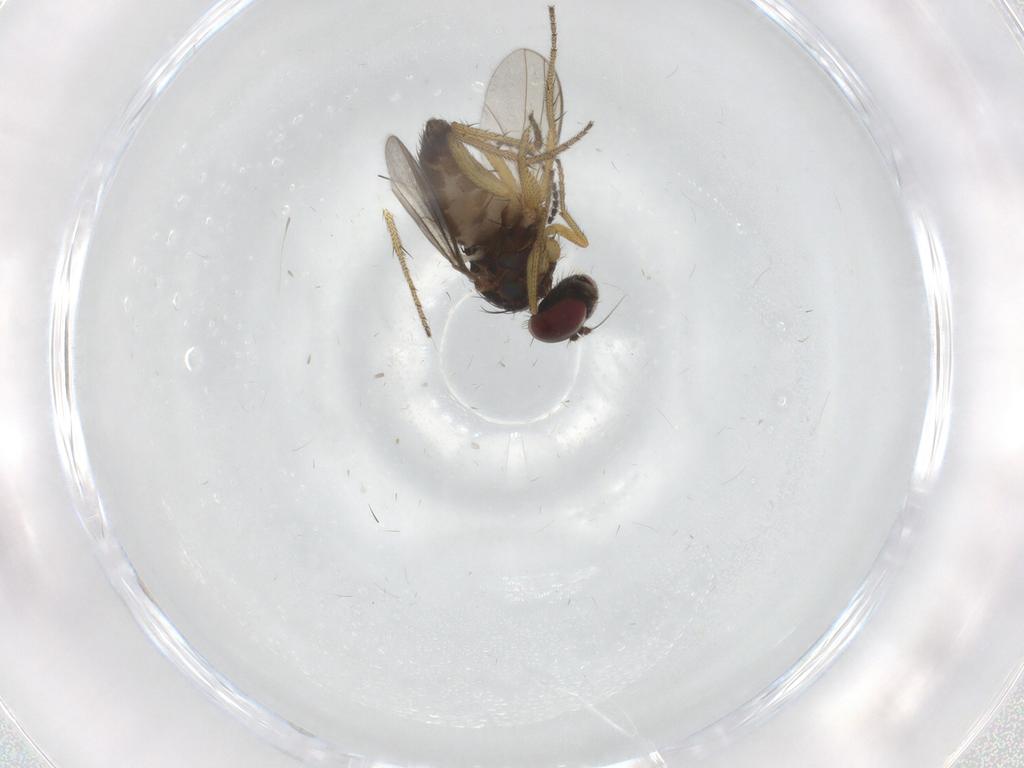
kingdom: Animalia
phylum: Arthropoda
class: Insecta
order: Diptera
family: Dolichopodidae
